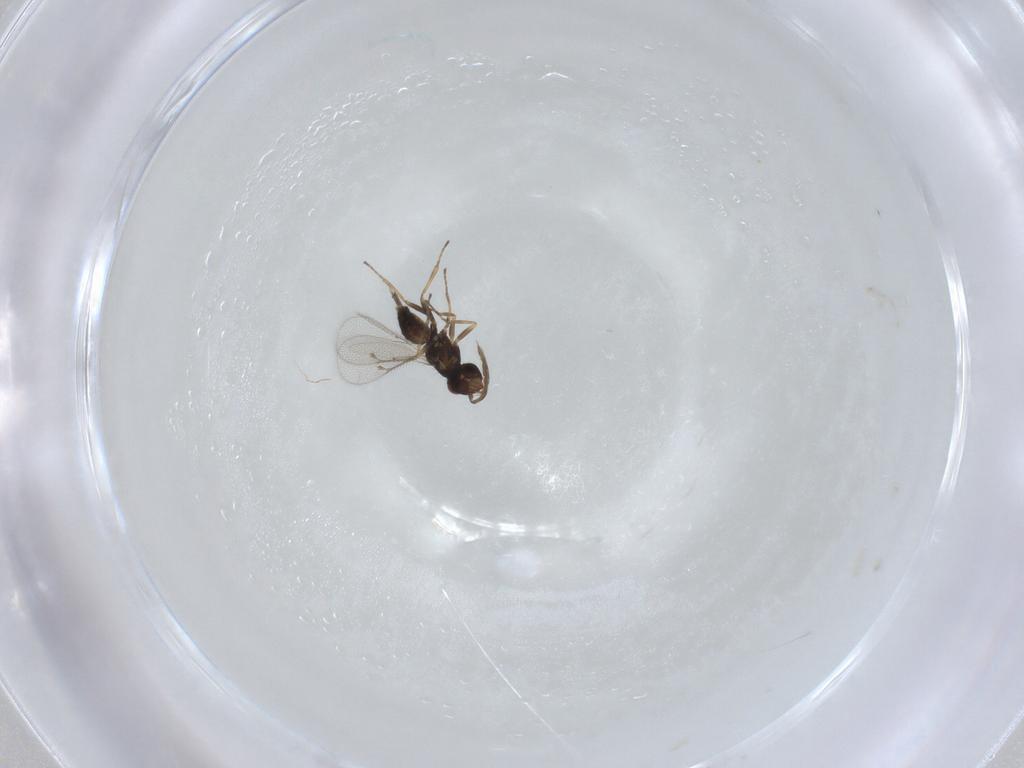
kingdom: Animalia
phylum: Arthropoda
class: Insecta
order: Hymenoptera
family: Eulophidae
